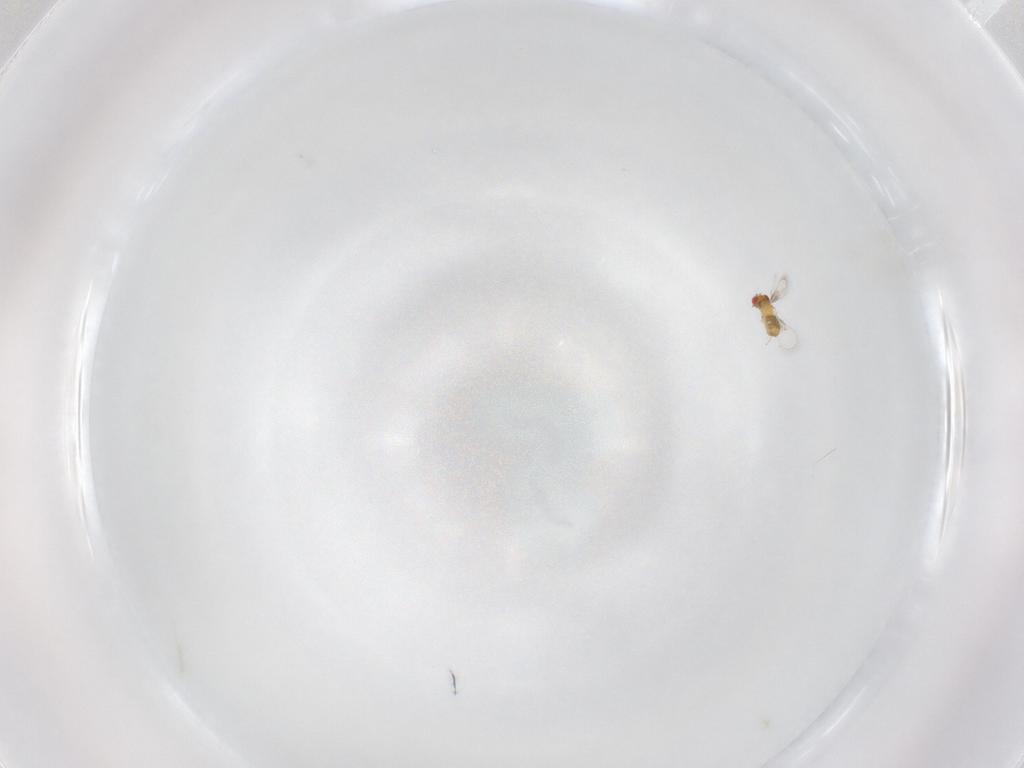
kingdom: Animalia
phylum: Arthropoda
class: Insecta
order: Hymenoptera
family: Trichogrammatidae
